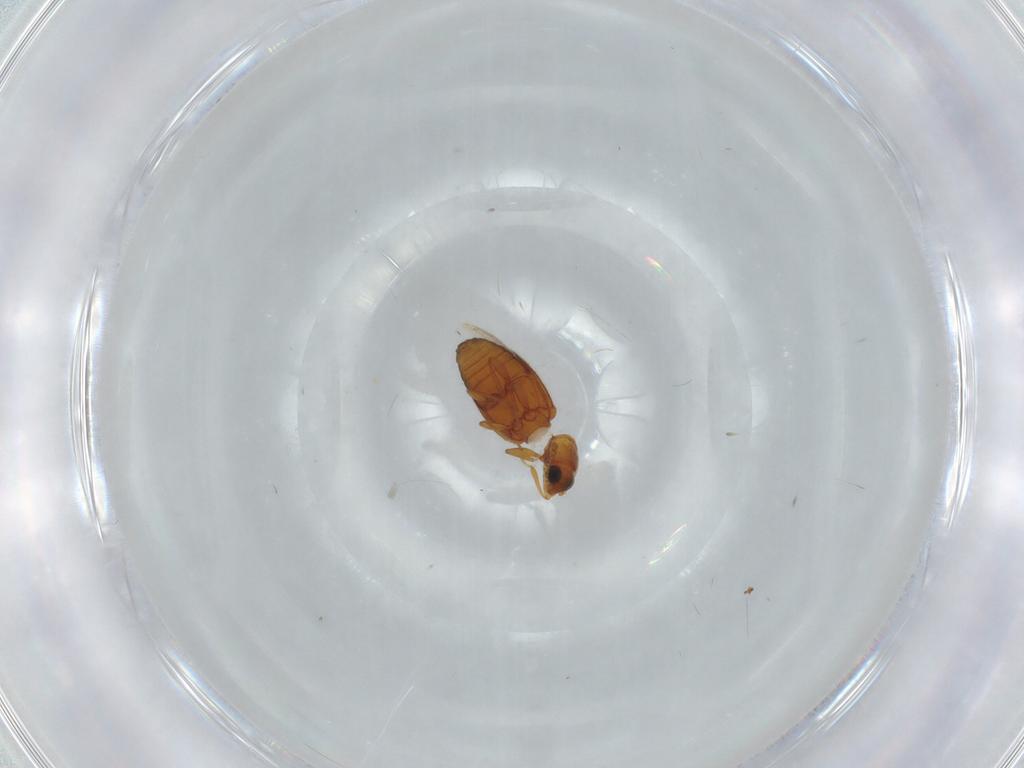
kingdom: Animalia
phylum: Arthropoda
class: Insecta
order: Coleoptera
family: Latridiidae
